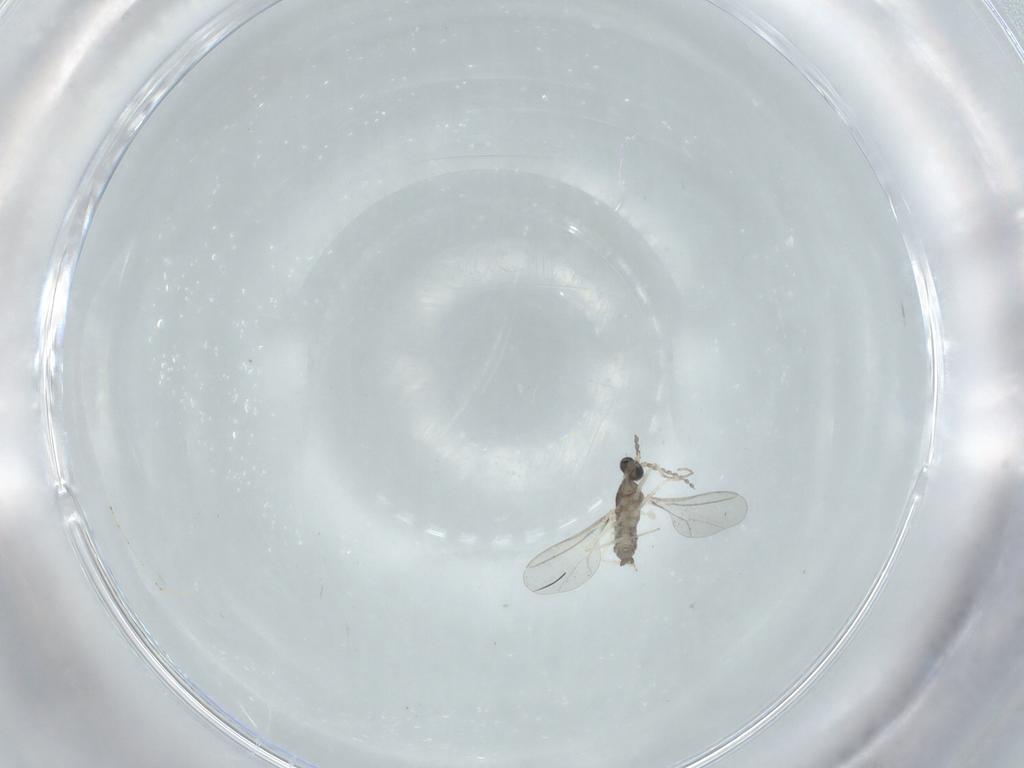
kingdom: Animalia
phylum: Arthropoda
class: Insecta
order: Diptera
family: Cecidomyiidae
